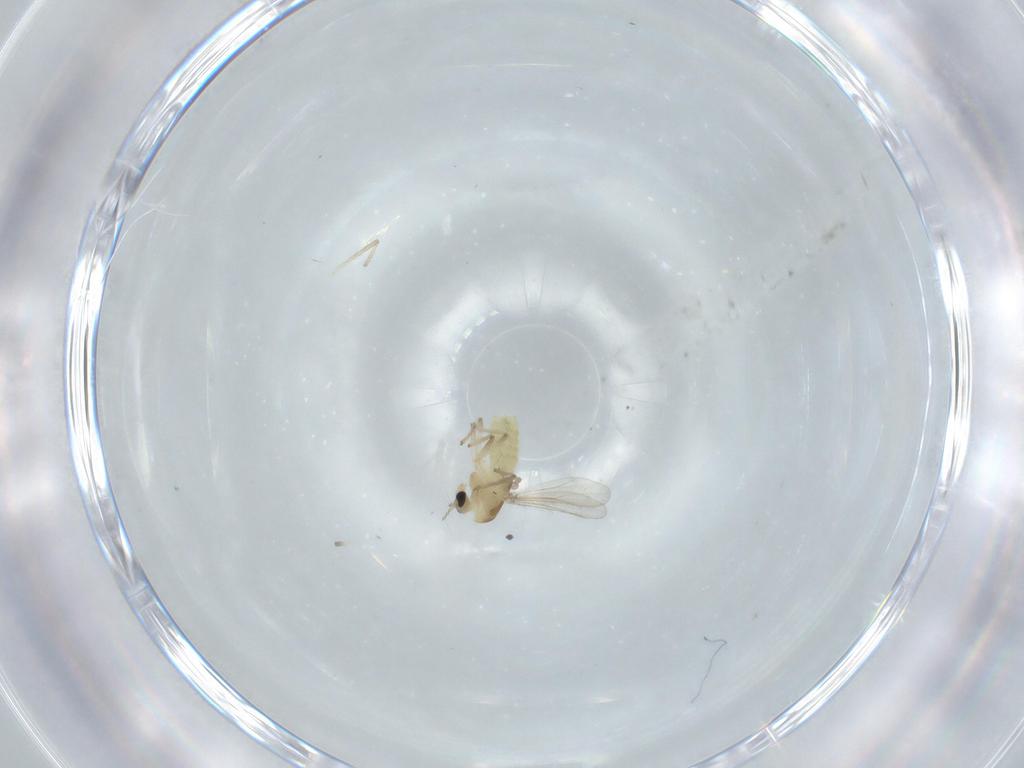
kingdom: Animalia
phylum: Arthropoda
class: Insecta
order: Diptera
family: Chironomidae
